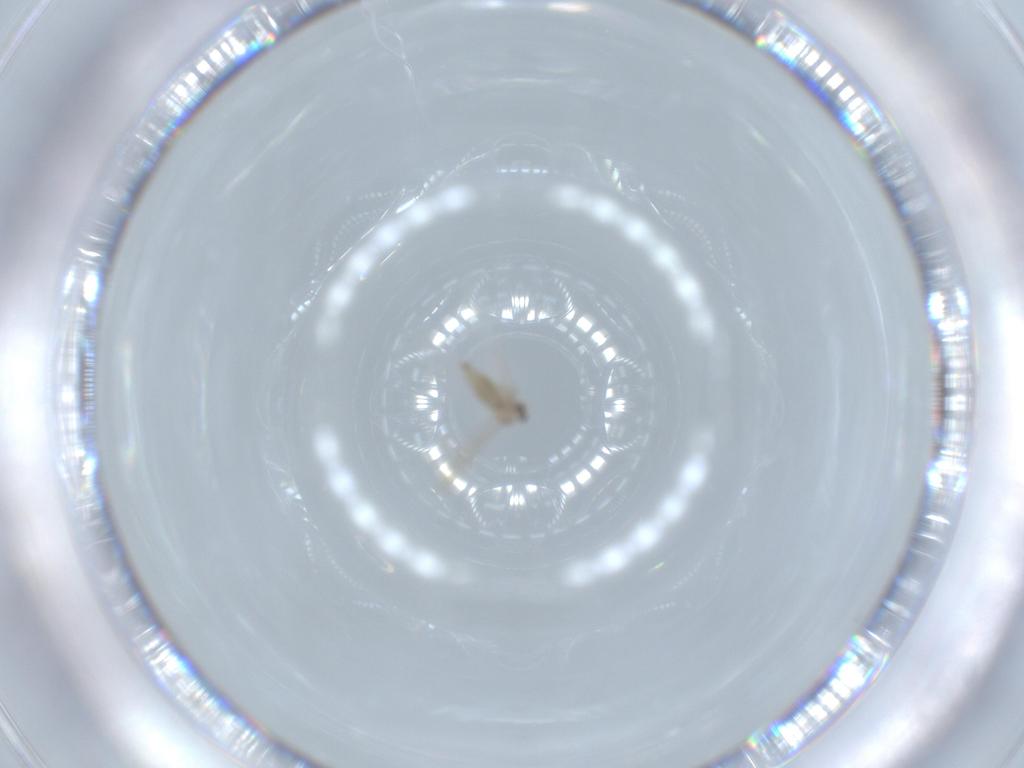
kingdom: Animalia
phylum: Arthropoda
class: Insecta
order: Diptera
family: Cecidomyiidae
